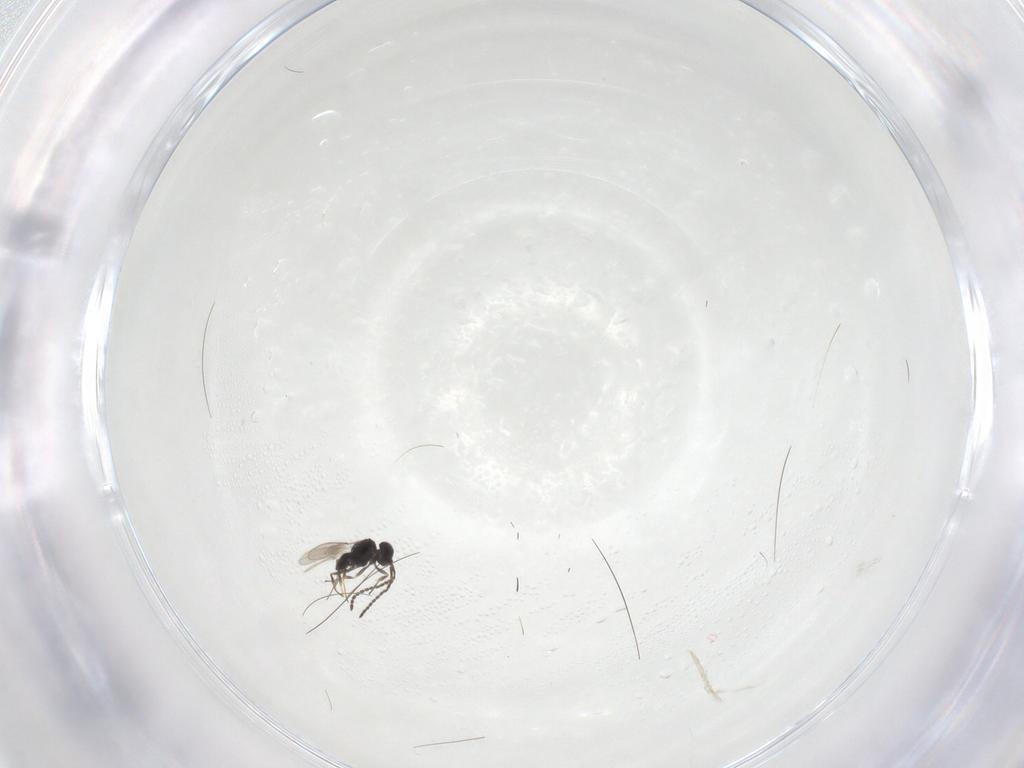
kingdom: Animalia
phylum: Arthropoda
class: Insecta
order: Hymenoptera
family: Scelionidae
